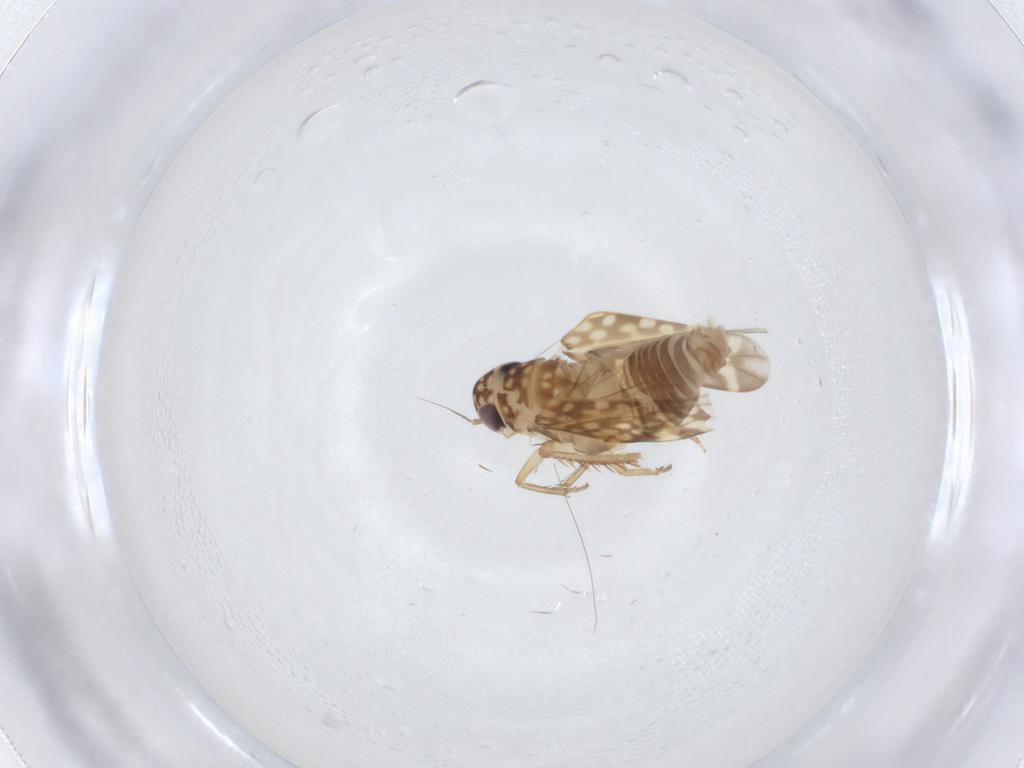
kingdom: Animalia
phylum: Arthropoda
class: Insecta
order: Hemiptera
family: Cicadellidae
